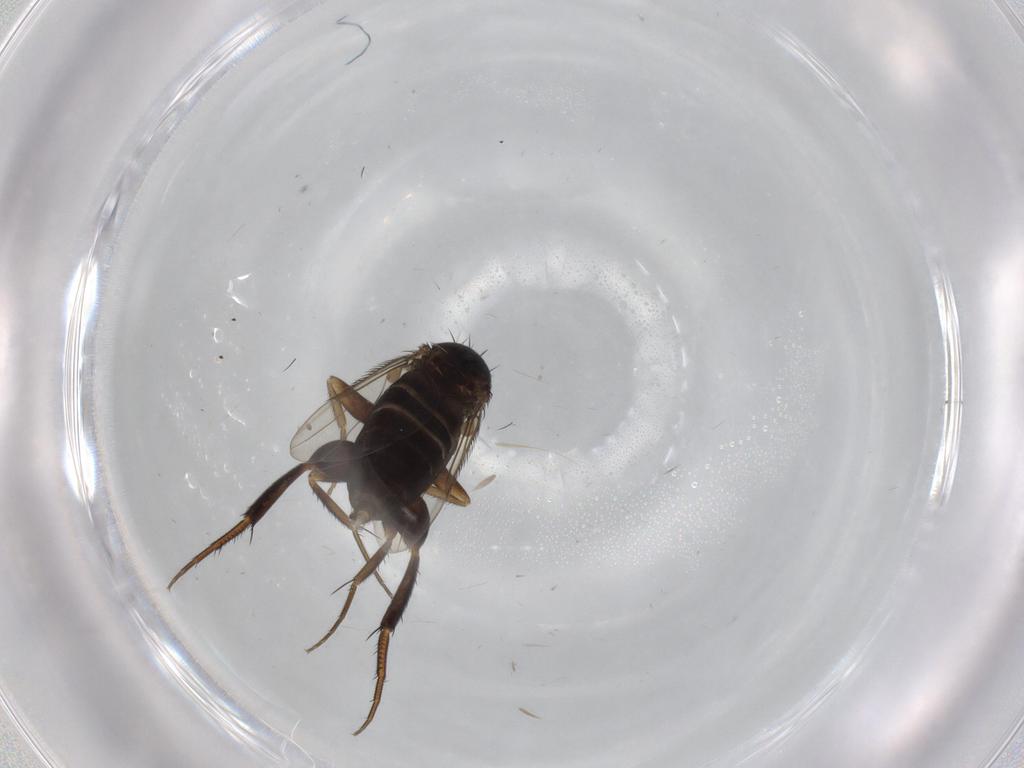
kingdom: Animalia
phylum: Arthropoda
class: Insecta
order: Diptera
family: Phoridae
